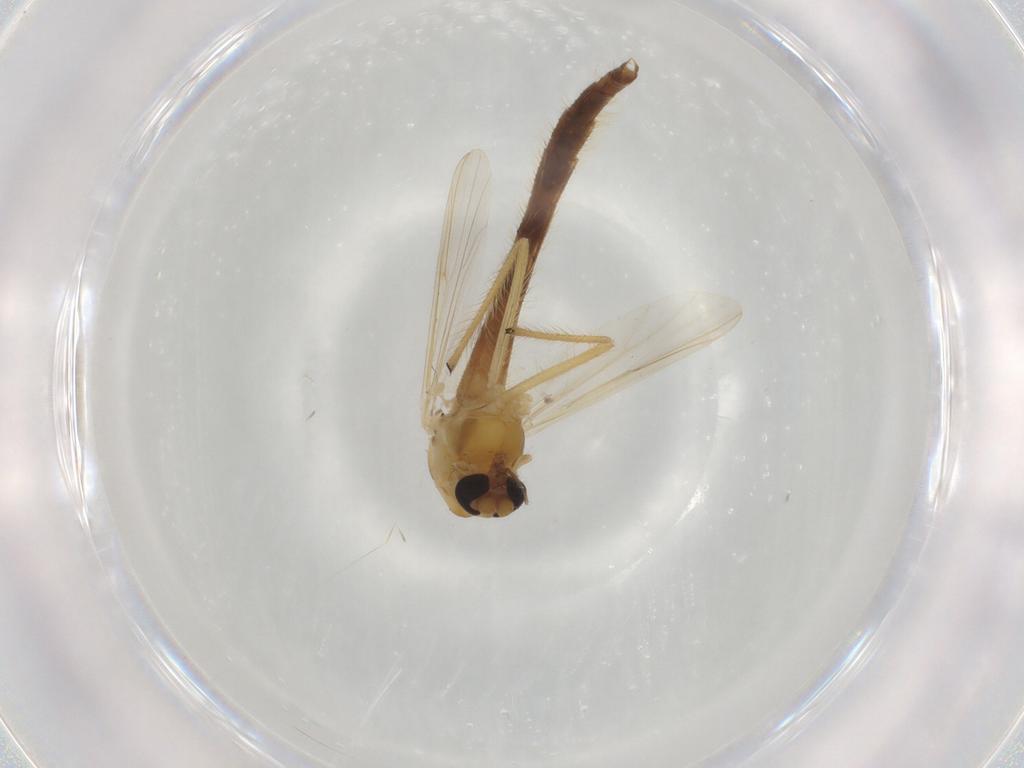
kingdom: Animalia
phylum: Arthropoda
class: Insecta
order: Diptera
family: Chironomidae
